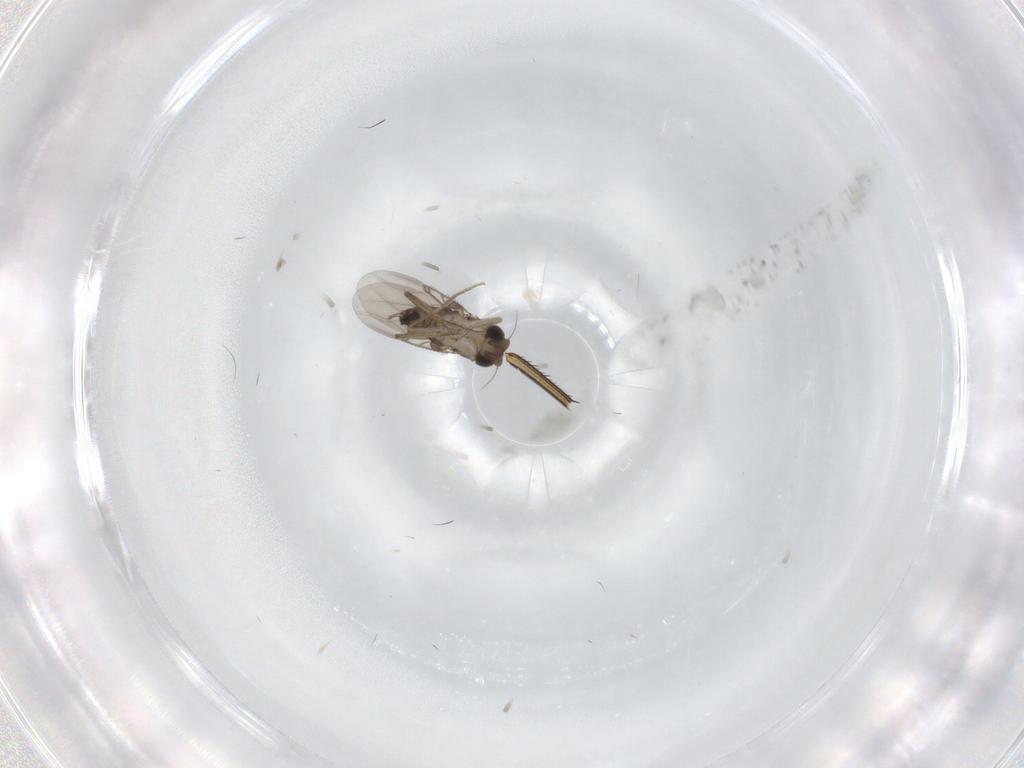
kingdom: Animalia
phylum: Arthropoda
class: Insecta
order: Diptera
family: Phoridae
